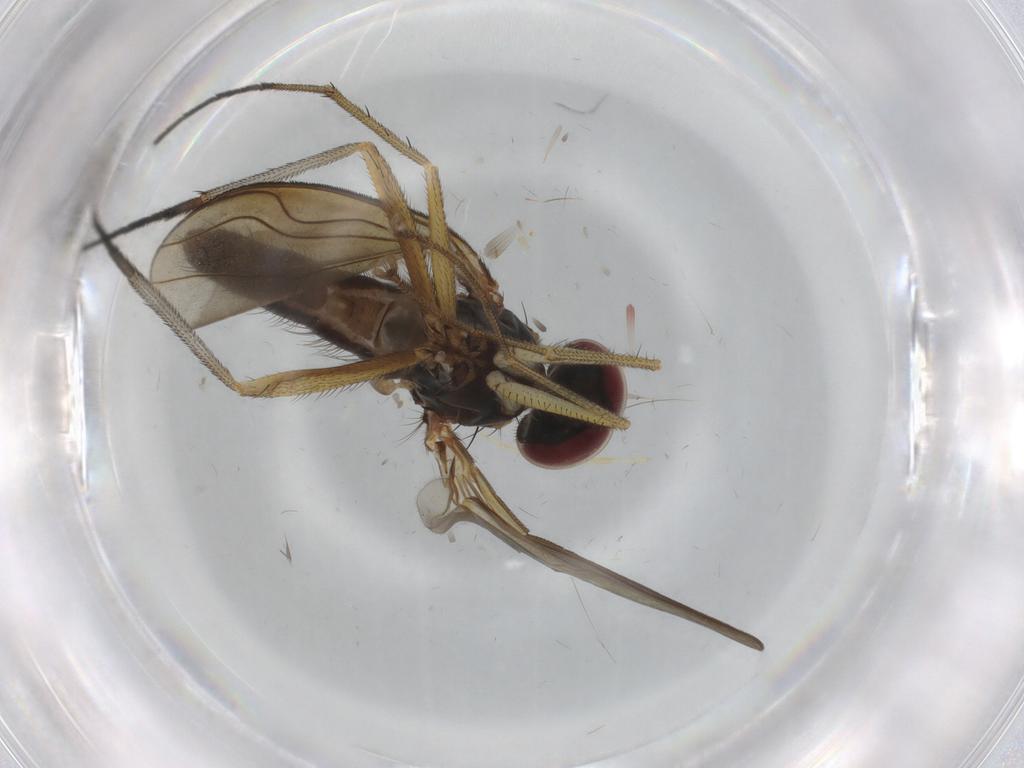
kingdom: Animalia
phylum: Arthropoda
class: Insecta
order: Diptera
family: Dolichopodidae
